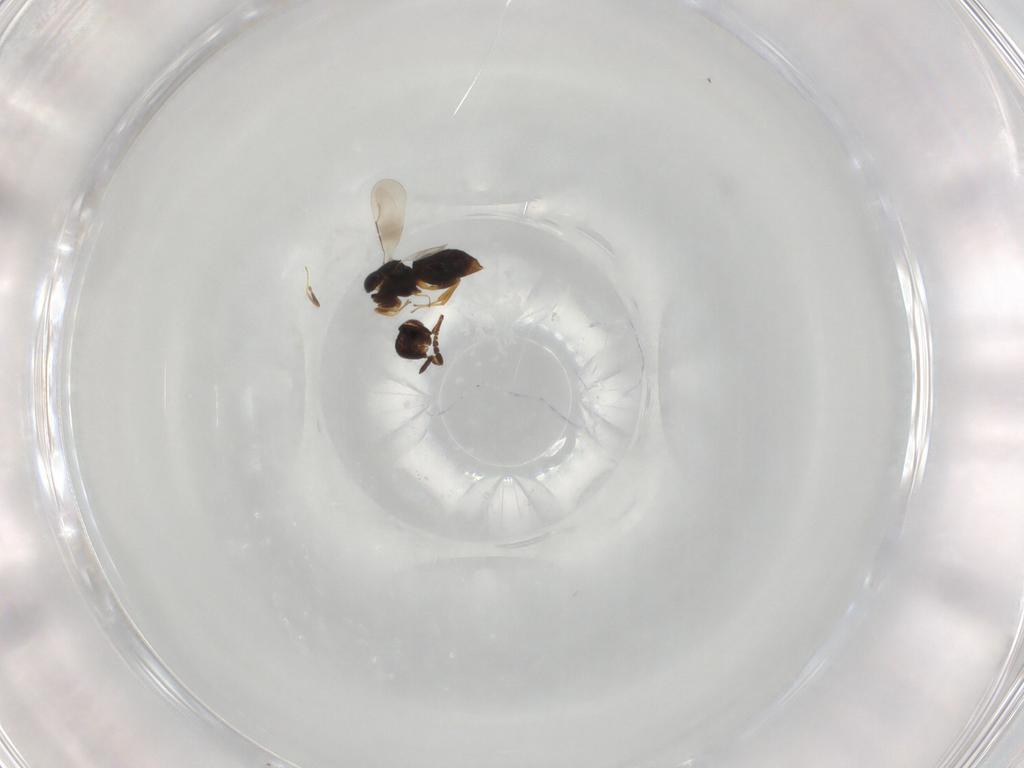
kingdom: Animalia
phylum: Arthropoda
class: Insecta
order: Hymenoptera
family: Ceraphronidae
